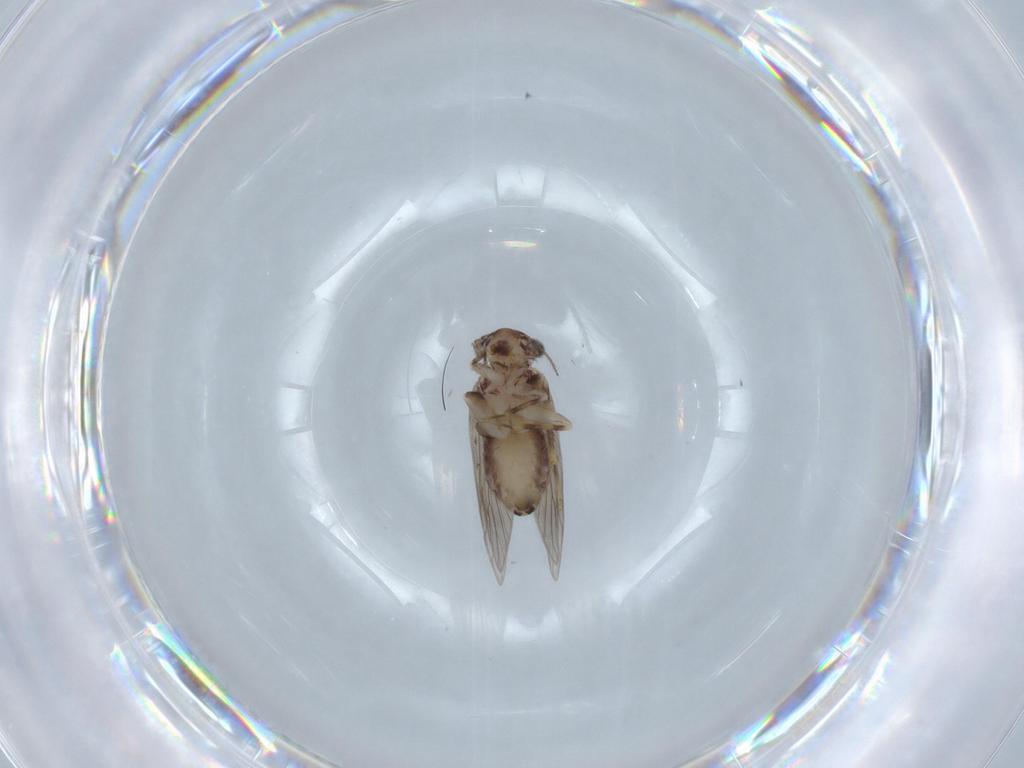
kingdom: Animalia
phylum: Arthropoda
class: Insecta
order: Psocodea
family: Lepidopsocidae
